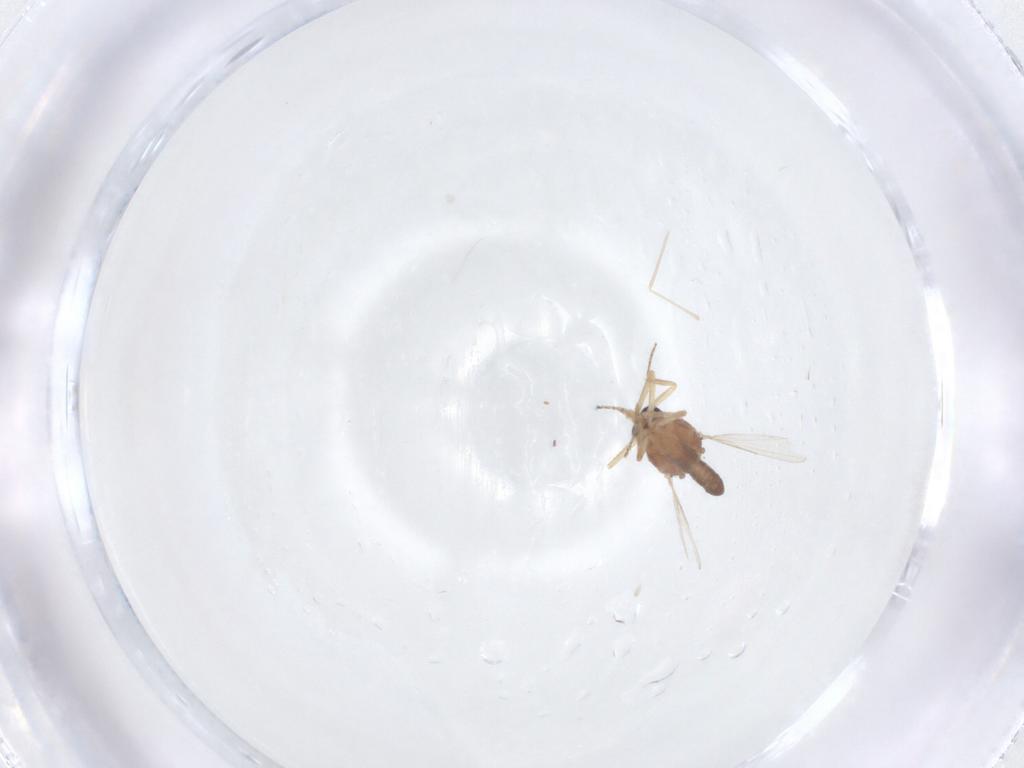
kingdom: Animalia
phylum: Arthropoda
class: Insecta
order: Diptera
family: Ceratopogonidae
